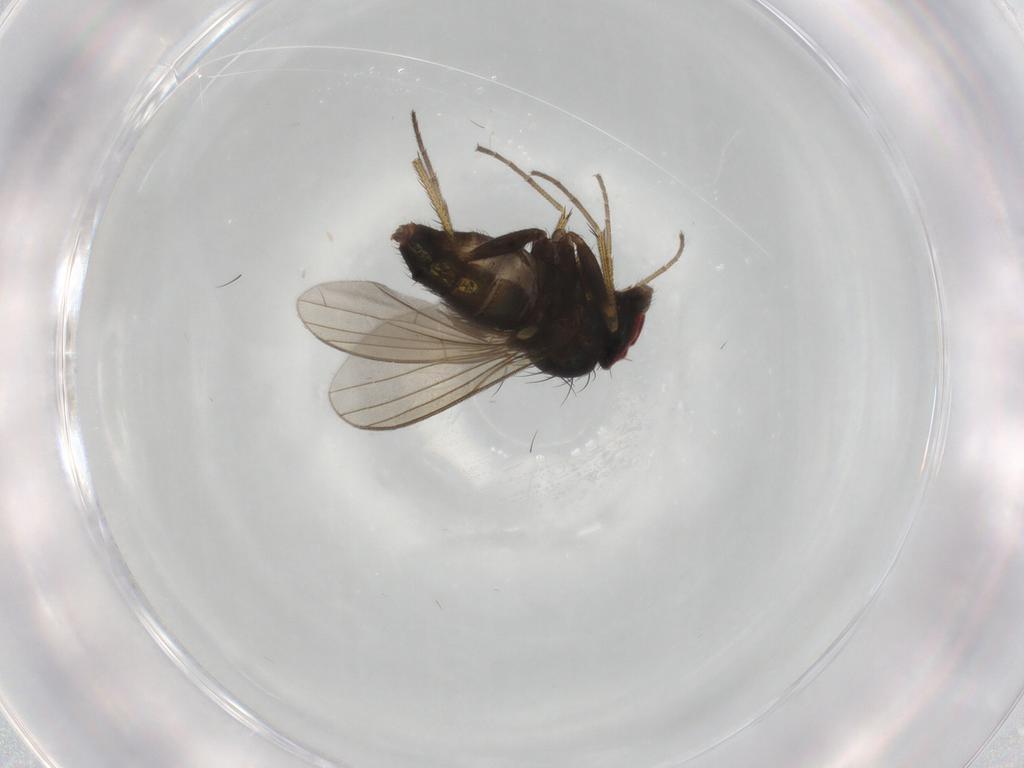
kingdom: Animalia
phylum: Arthropoda
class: Insecta
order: Diptera
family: Dolichopodidae
